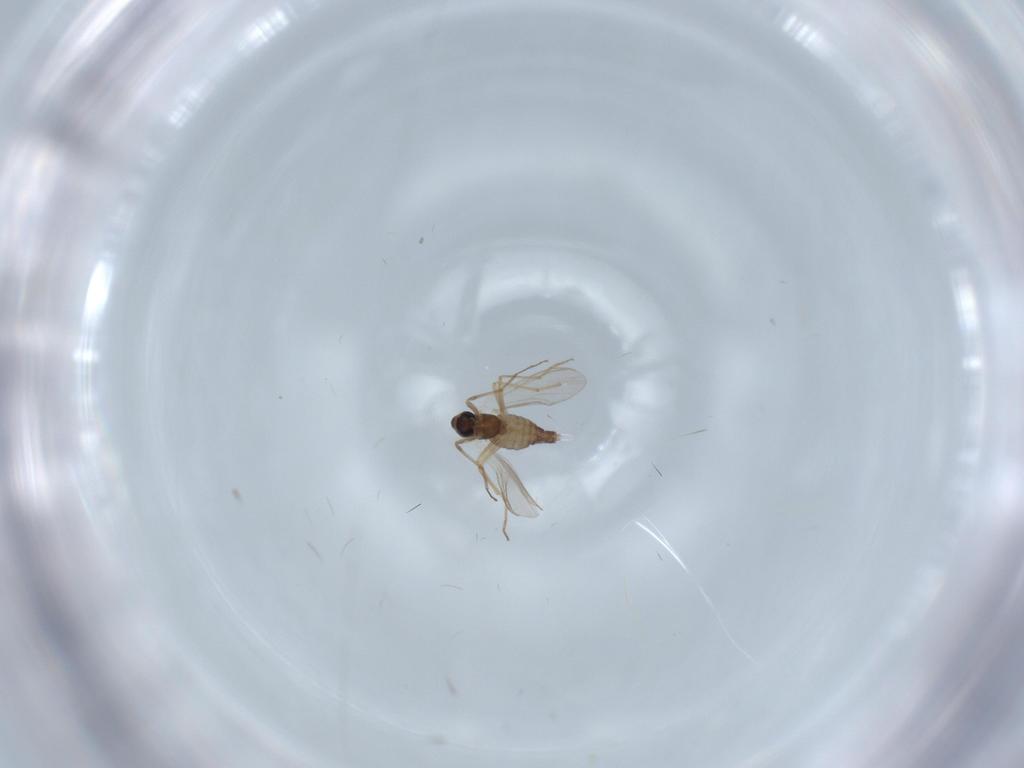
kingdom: Animalia
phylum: Arthropoda
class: Insecta
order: Diptera
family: Chironomidae
